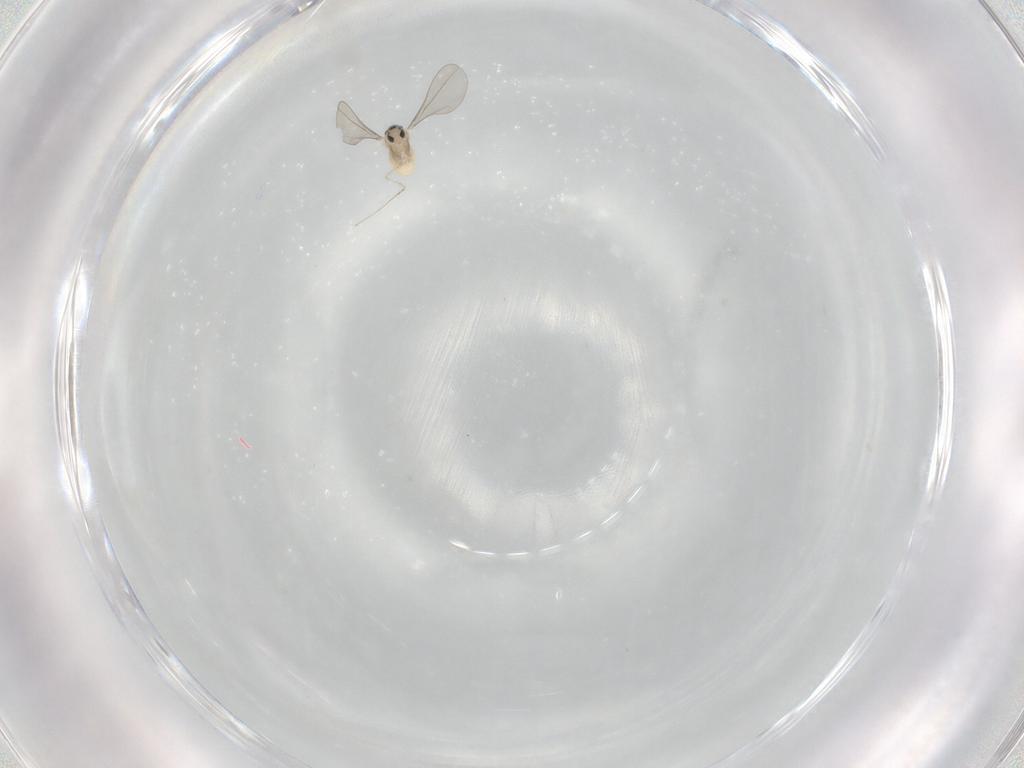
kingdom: Animalia
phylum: Arthropoda
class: Insecta
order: Diptera
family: Cecidomyiidae
